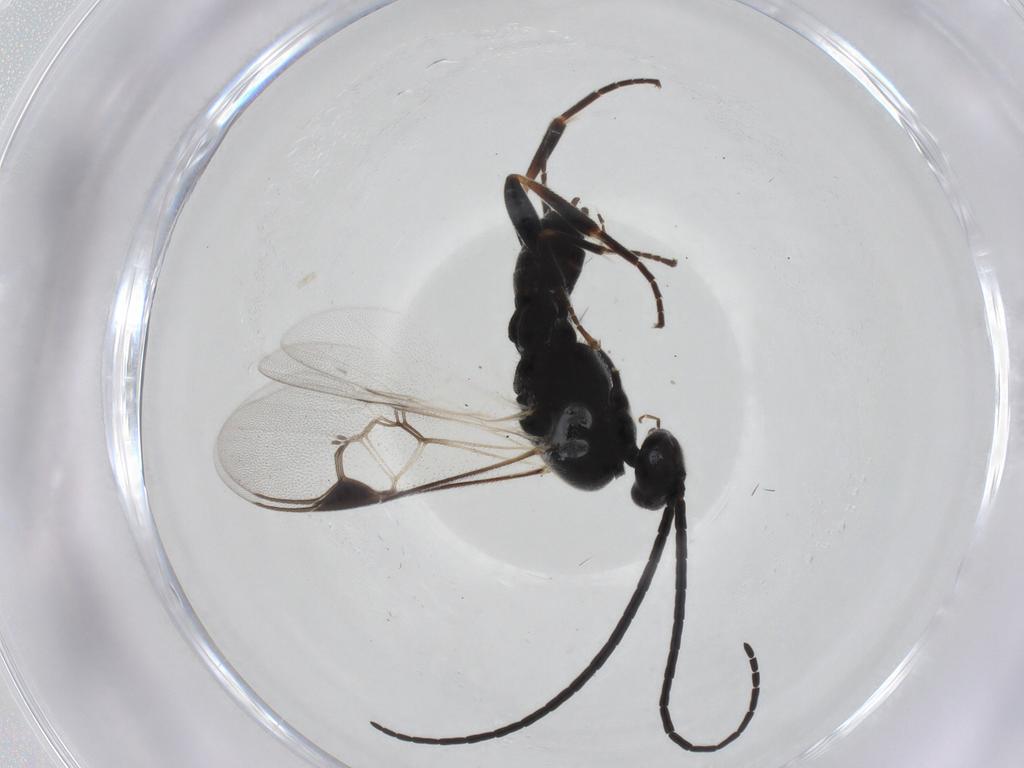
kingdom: Animalia
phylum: Arthropoda
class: Insecta
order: Hymenoptera
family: Braconidae
